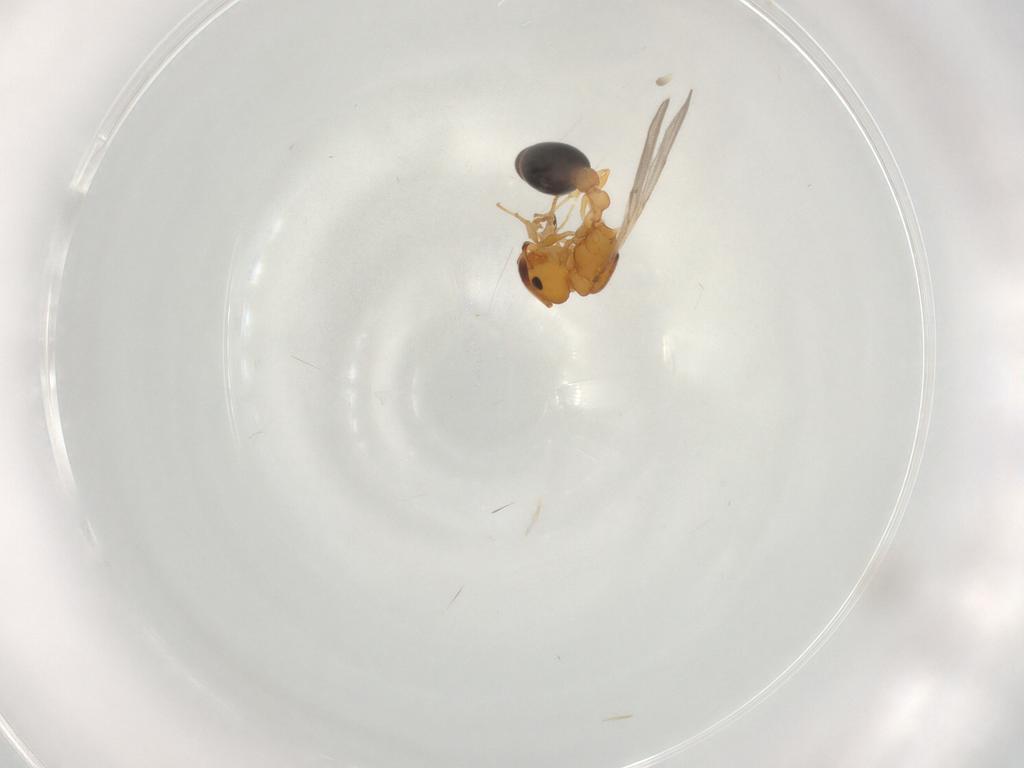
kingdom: Animalia
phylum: Arthropoda
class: Insecta
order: Hymenoptera
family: Formicidae
